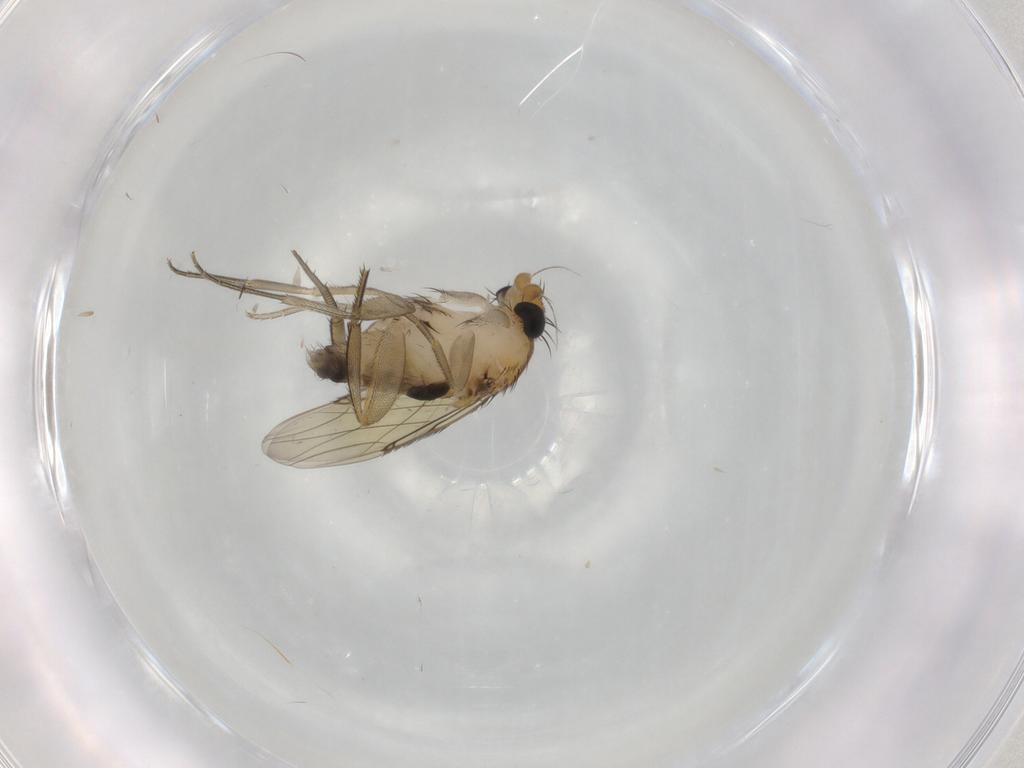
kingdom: Animalia
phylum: Arthropoda
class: Insecta
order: Diptera
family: Phoridae
